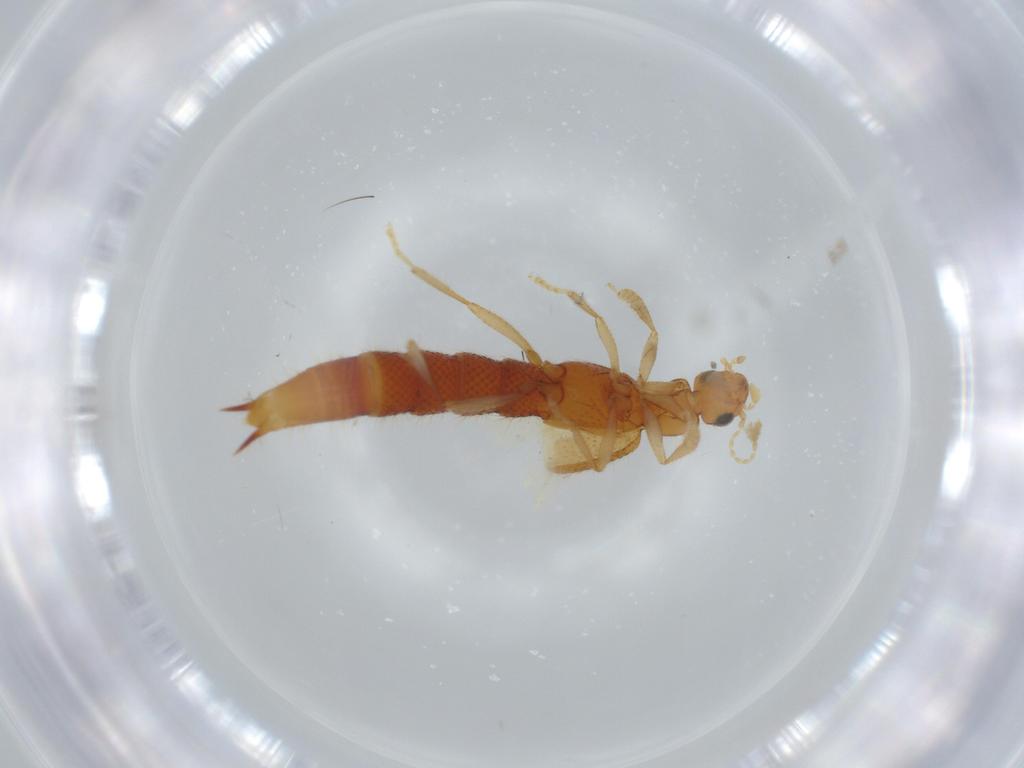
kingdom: Animalia
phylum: Arthropoda
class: Insecta
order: Coleoptera
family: Staphylinidae
